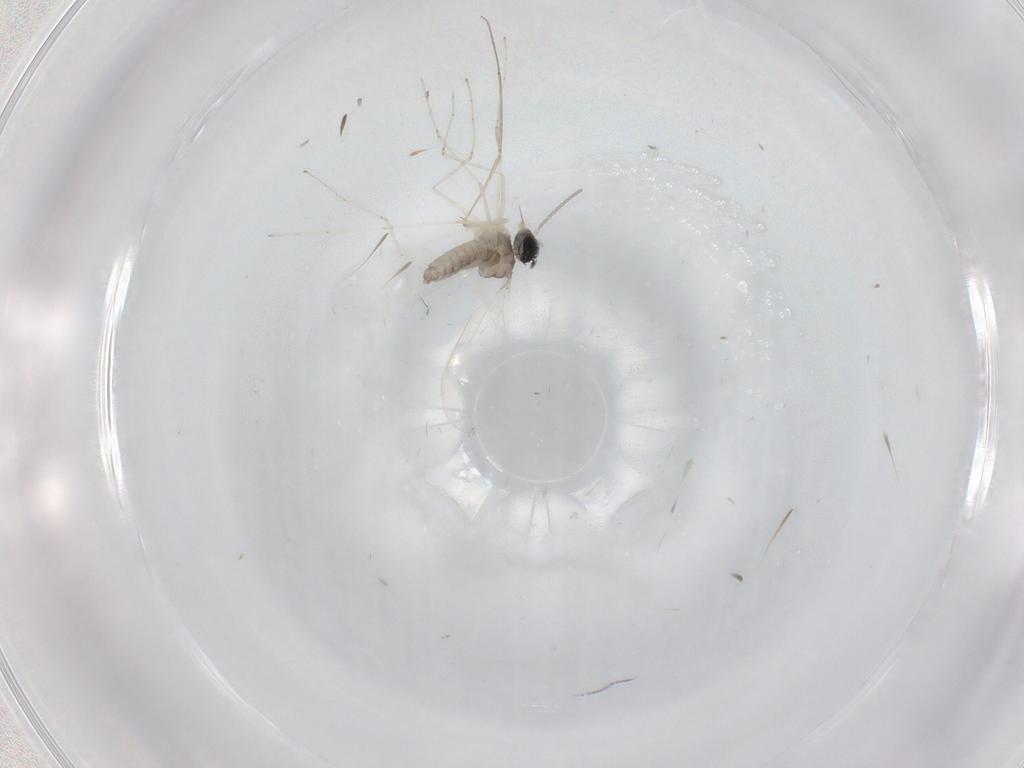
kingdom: Animalia
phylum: Arthropoda
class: Insecta
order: Diptera
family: Cecidomyiidae
